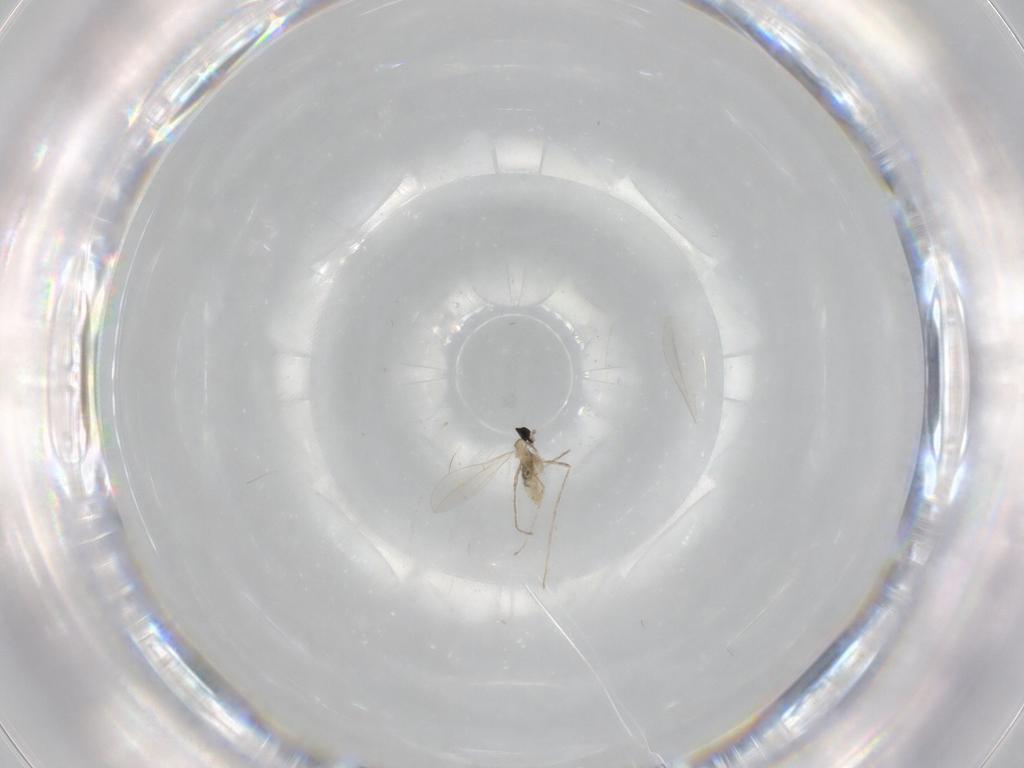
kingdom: Animalia
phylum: Arthropoda
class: Insecta
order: Diptera
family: Cecidomyiidae
